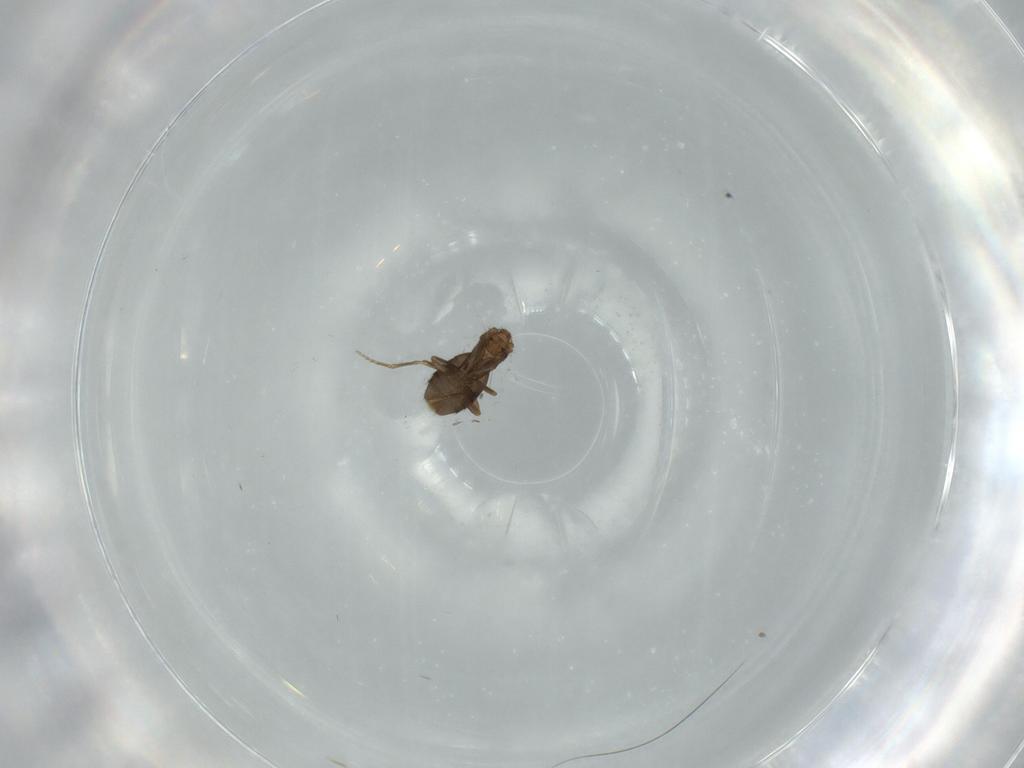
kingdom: Animalia
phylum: Arthropoda
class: Insecta
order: Diptera
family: Phoridae
